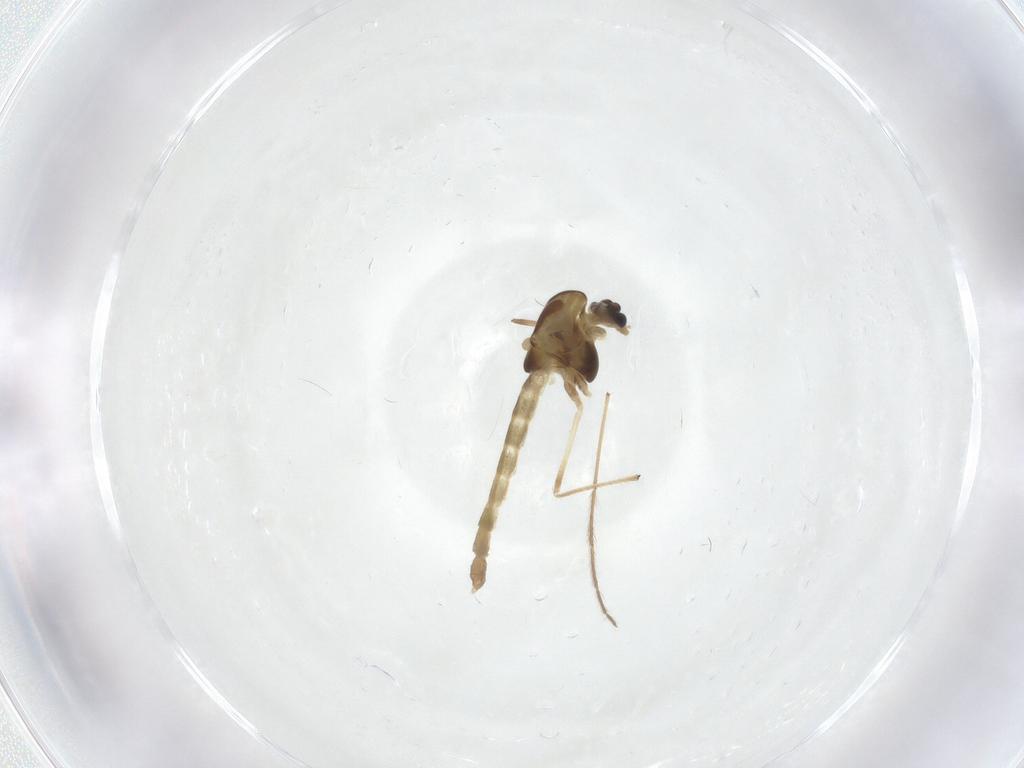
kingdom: Animalia
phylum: Arthropoda
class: Insecta
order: Diptera
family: Chironomidae
